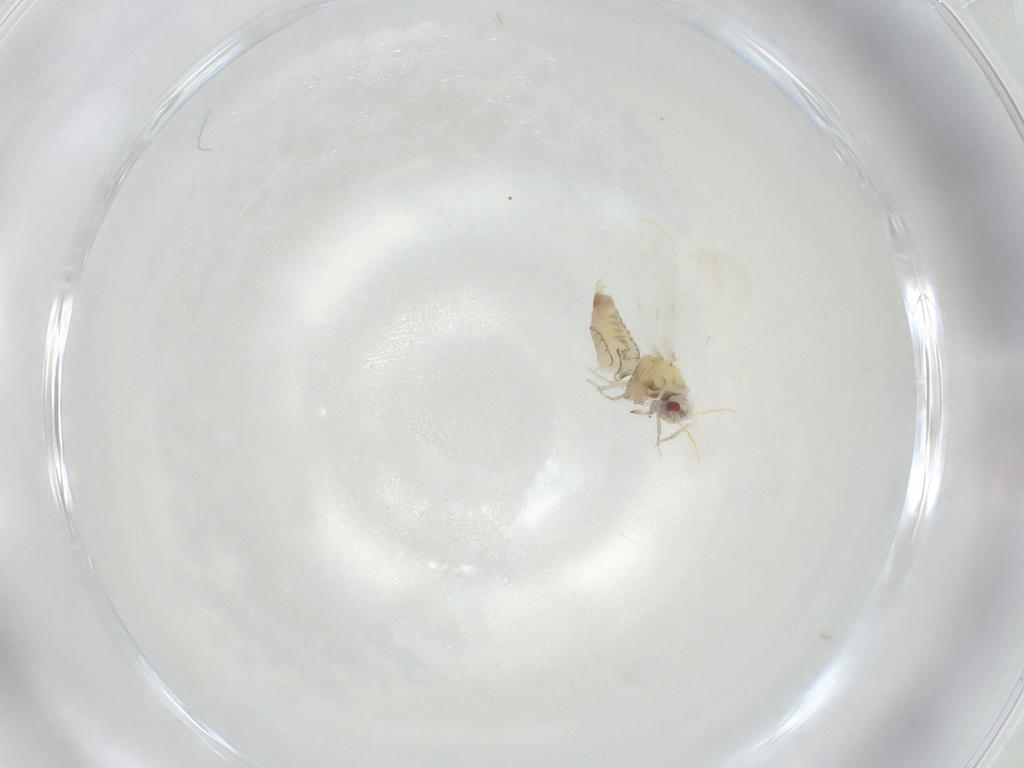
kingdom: Animalia
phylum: Arthropoda
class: Insecta
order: Hemiptera
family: Aleyrodidae
